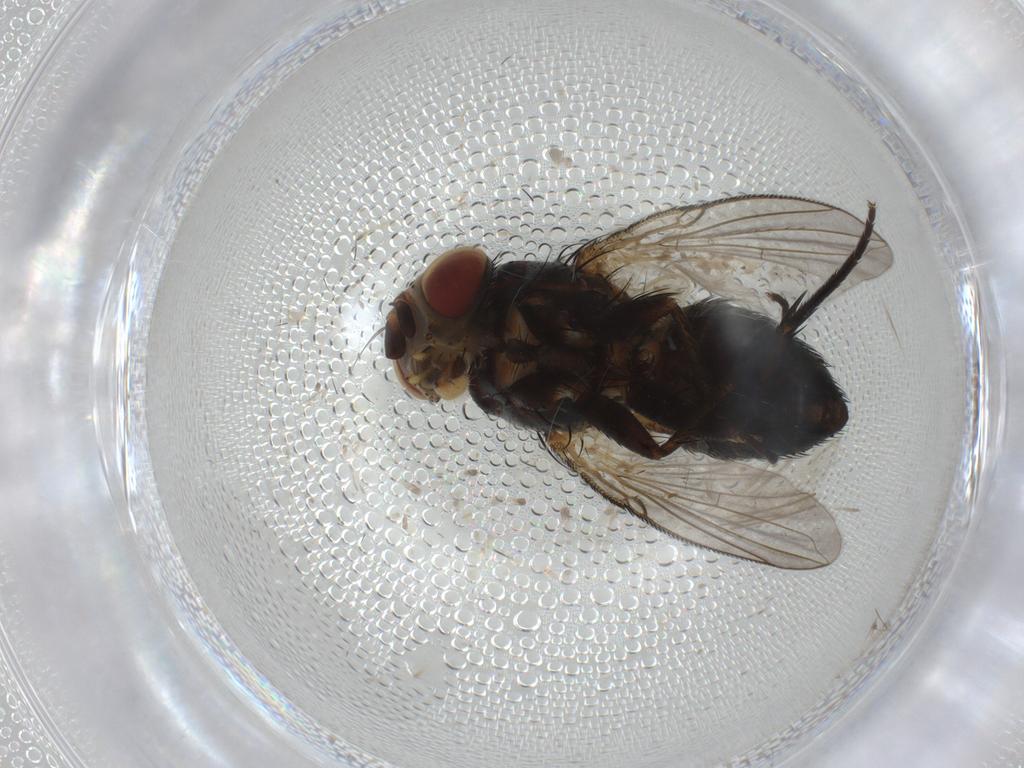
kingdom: Animalia
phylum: Arthropoda
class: Insecta
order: Diptera
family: Tachinidae
